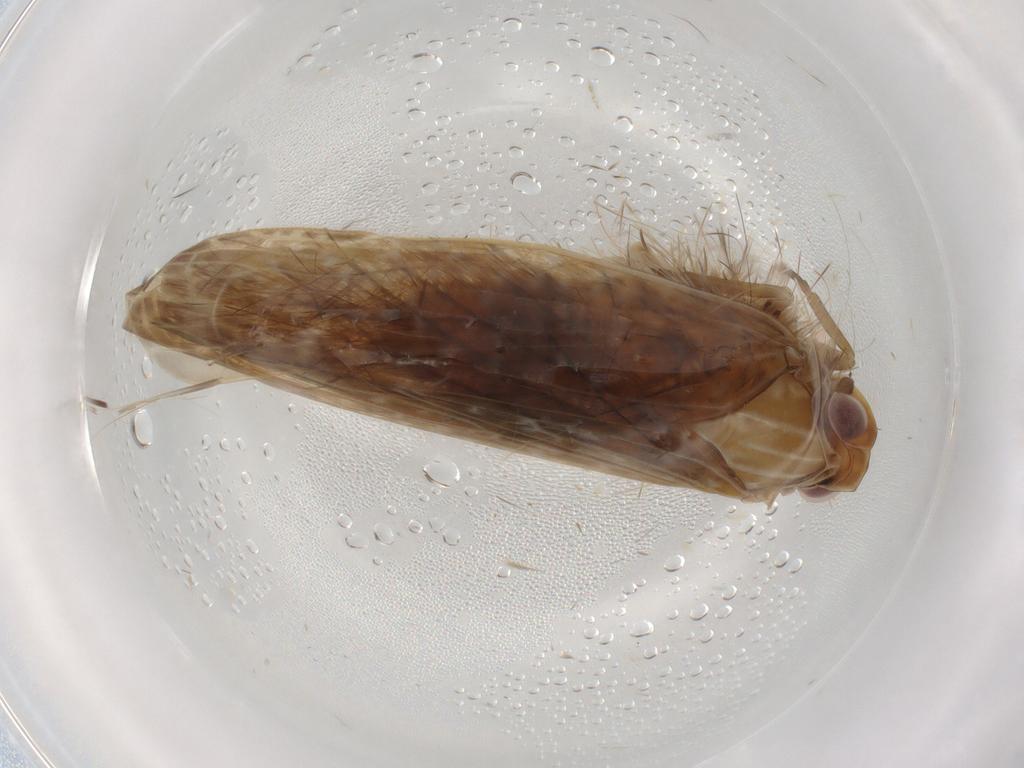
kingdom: Animalia
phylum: Arthropoda
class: Insecta
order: Hemiptera
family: Achilidae
